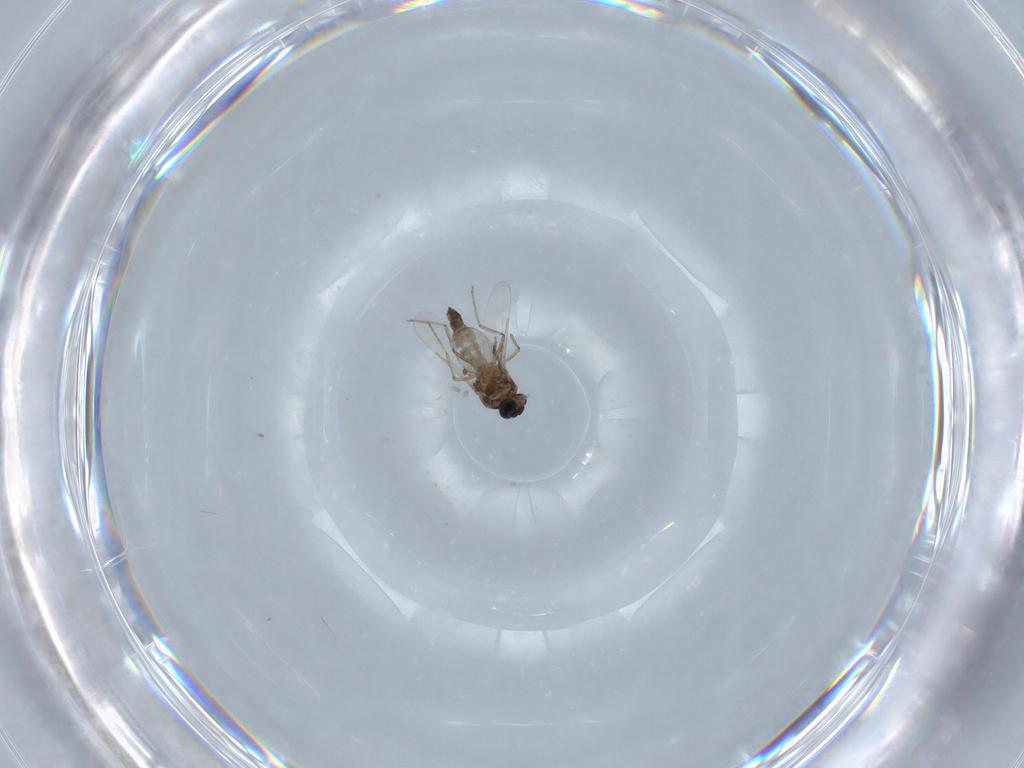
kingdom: Animalia
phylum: Arthropoda
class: Insecta
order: Diptera
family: Ceratopogonidae
